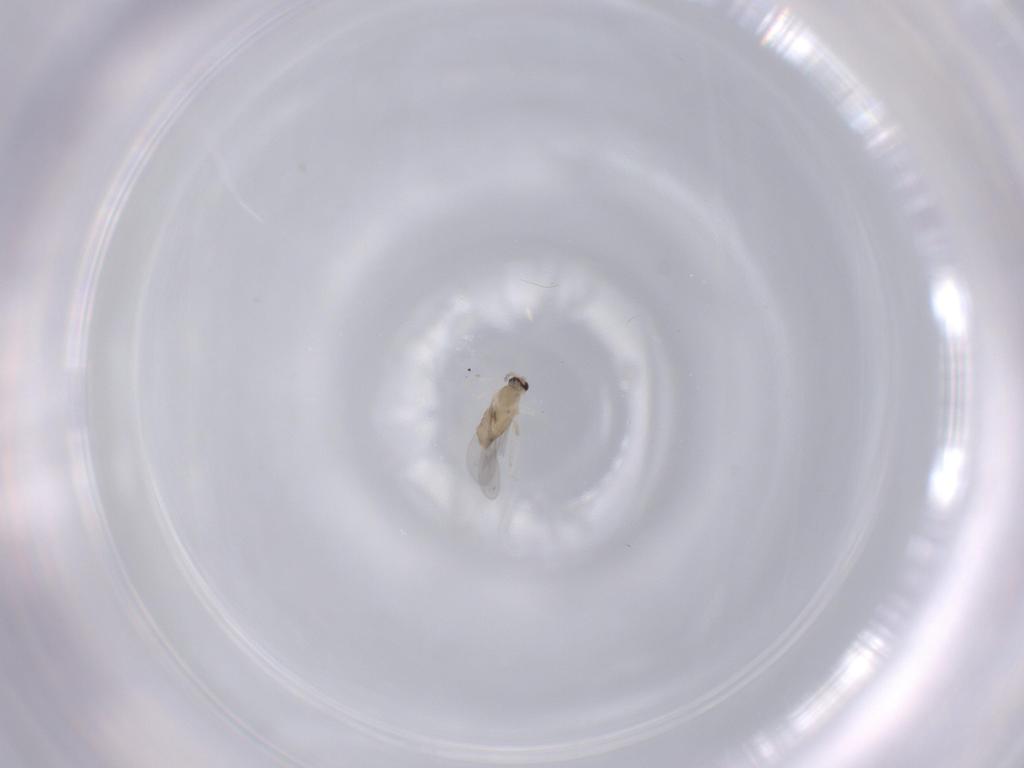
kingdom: Animalia
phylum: Arthropoda
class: Insecta
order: Diptera
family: Cecidomyiidae
